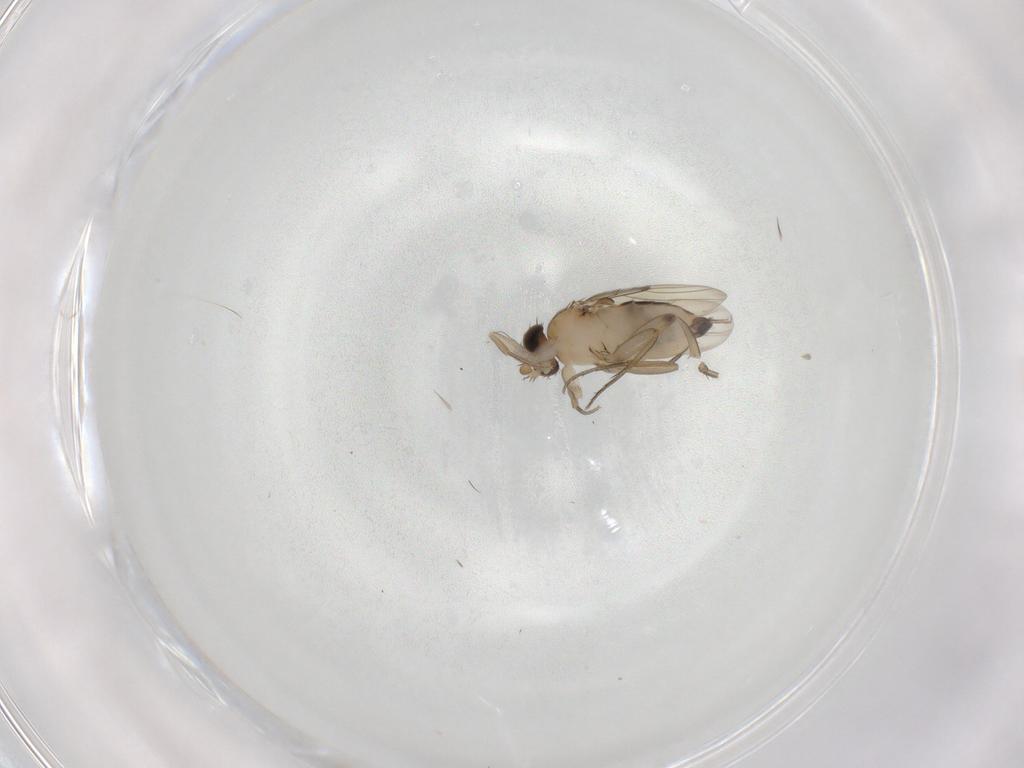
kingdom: Animalia
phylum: Arthropoda
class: Insecta
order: Diptera
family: Phoridae
